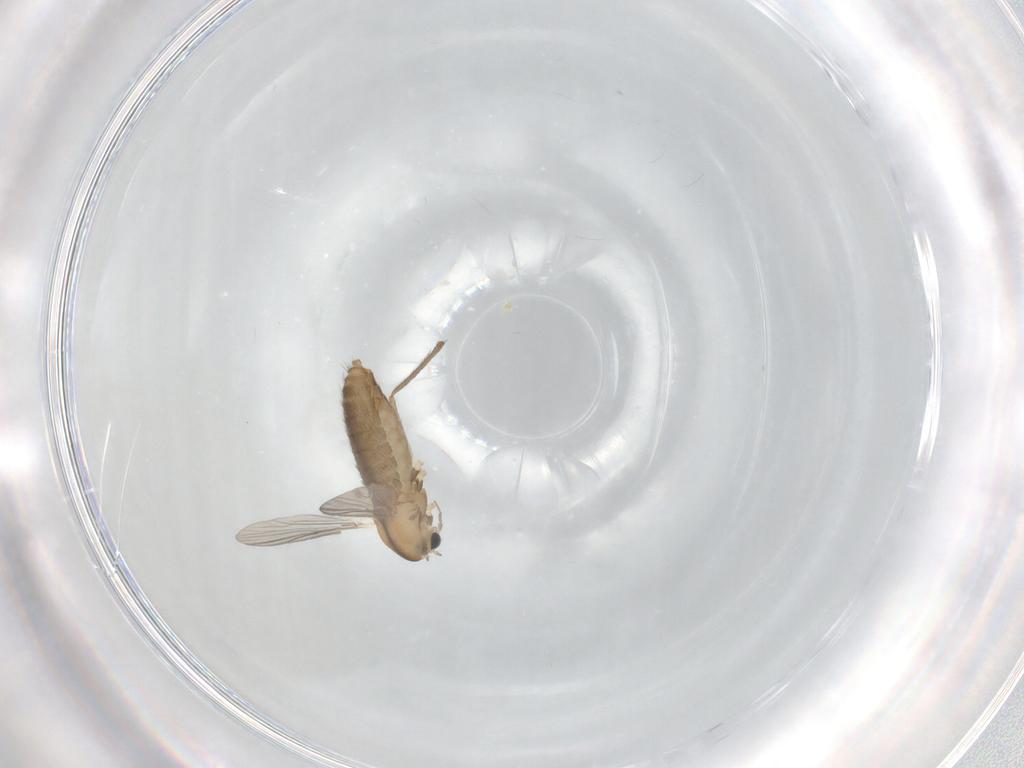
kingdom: Animalia
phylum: Arthropoda
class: Insecta
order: Diptera
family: Chironomidae
